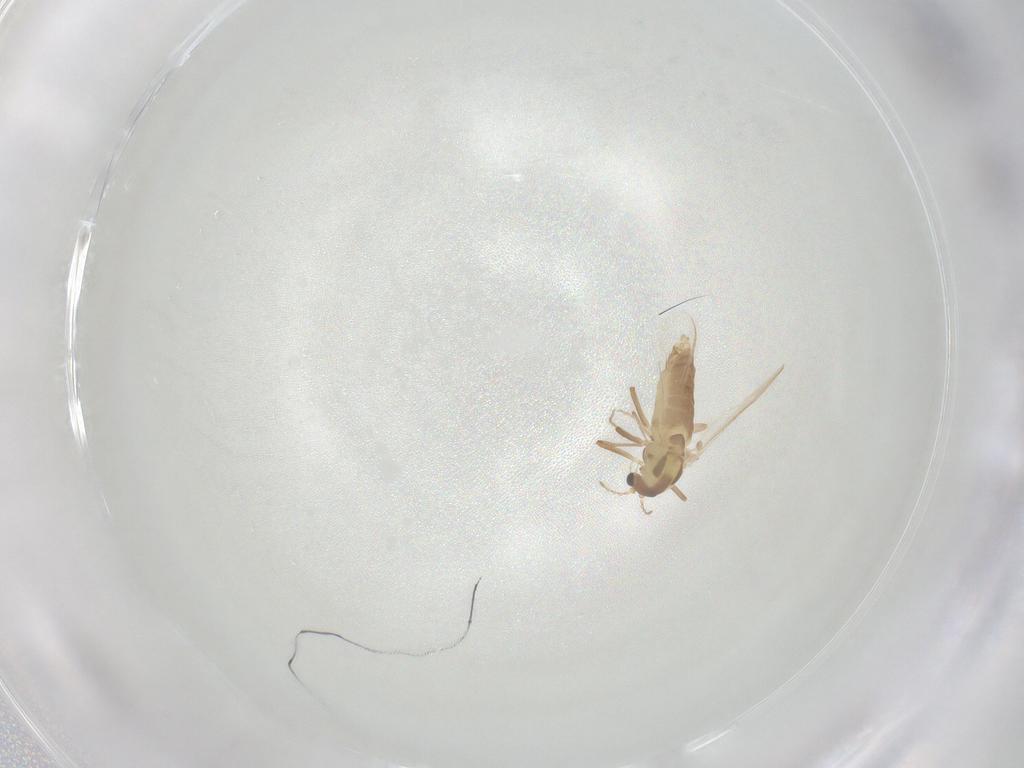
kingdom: Animalia
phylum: Arthropoda
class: Insecta
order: Diptera
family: Chironomidae
